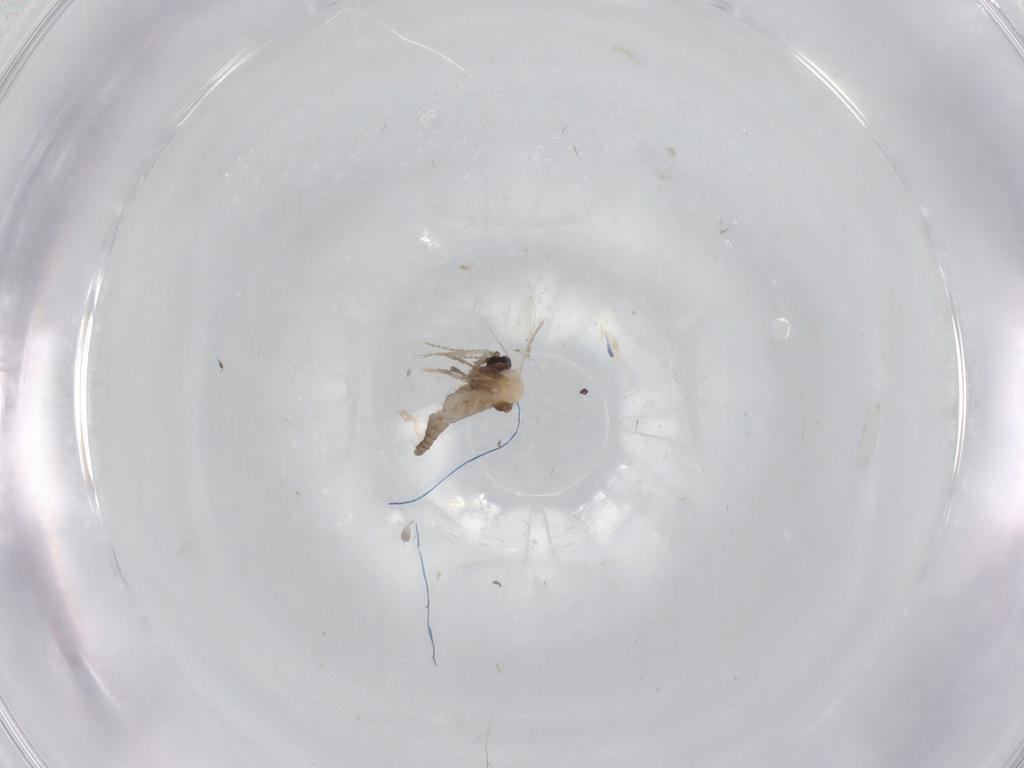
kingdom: Animalia
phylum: Arthropoda
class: Insecta
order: Diptera
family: Ceratopogonidae
